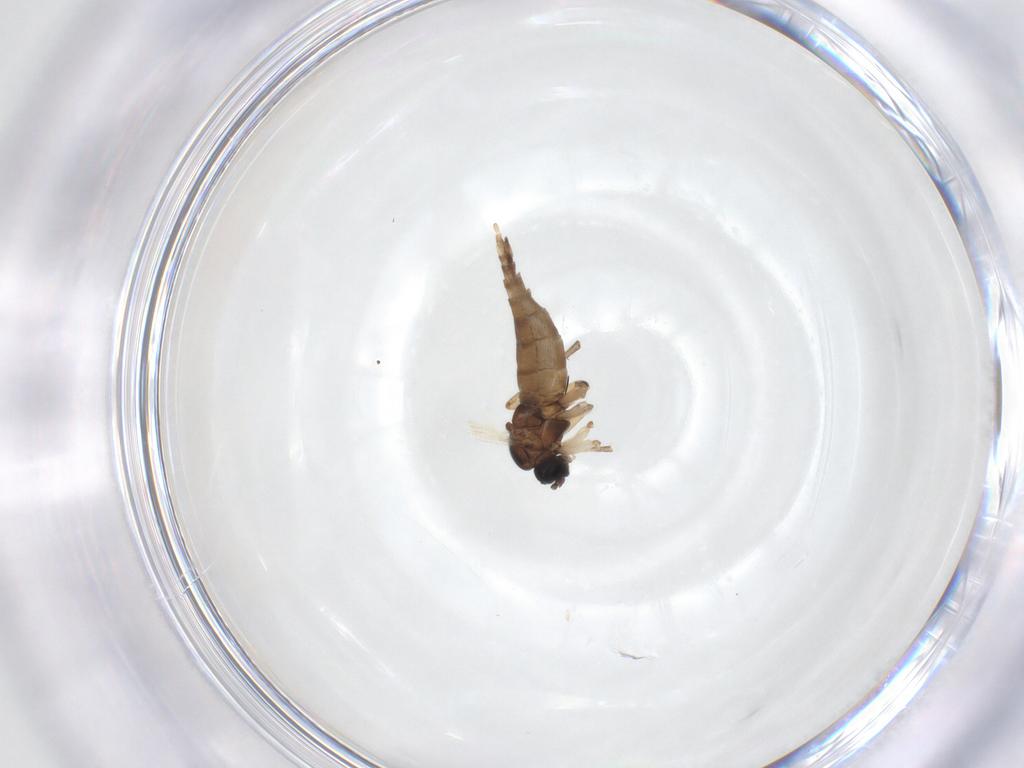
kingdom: Animalia
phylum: Arthropoda
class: Insecta
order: Diptera
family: Sciaridae
